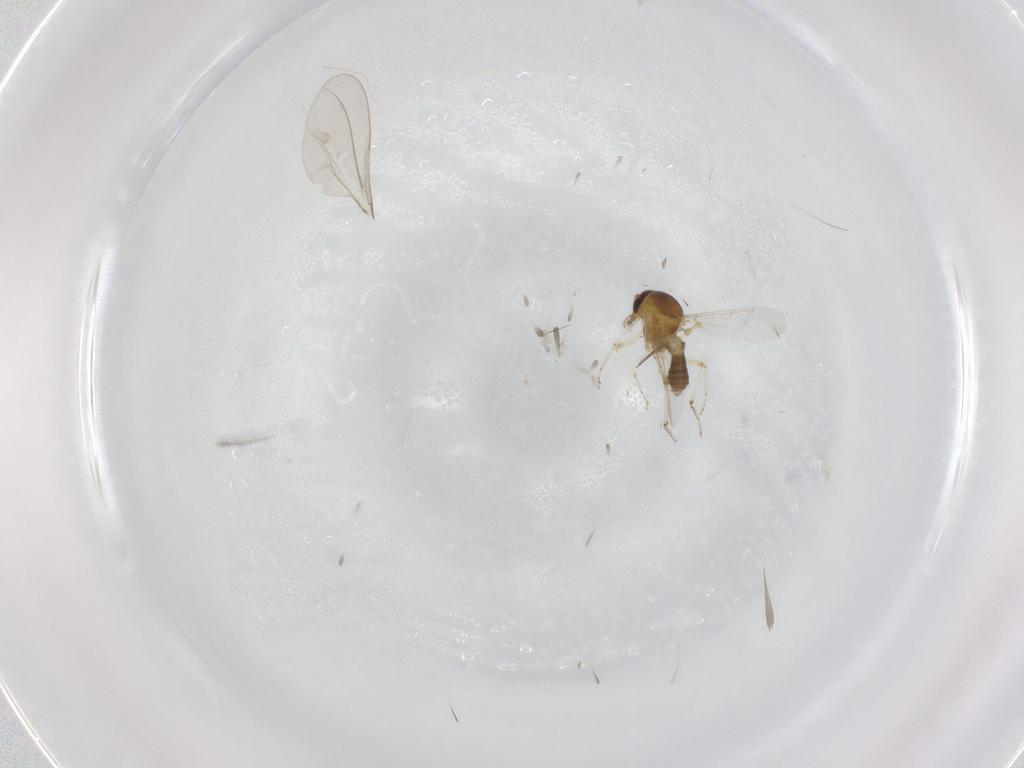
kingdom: Animalia
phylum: Arthropoda
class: Insecta
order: Diptera
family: Chironomidae
